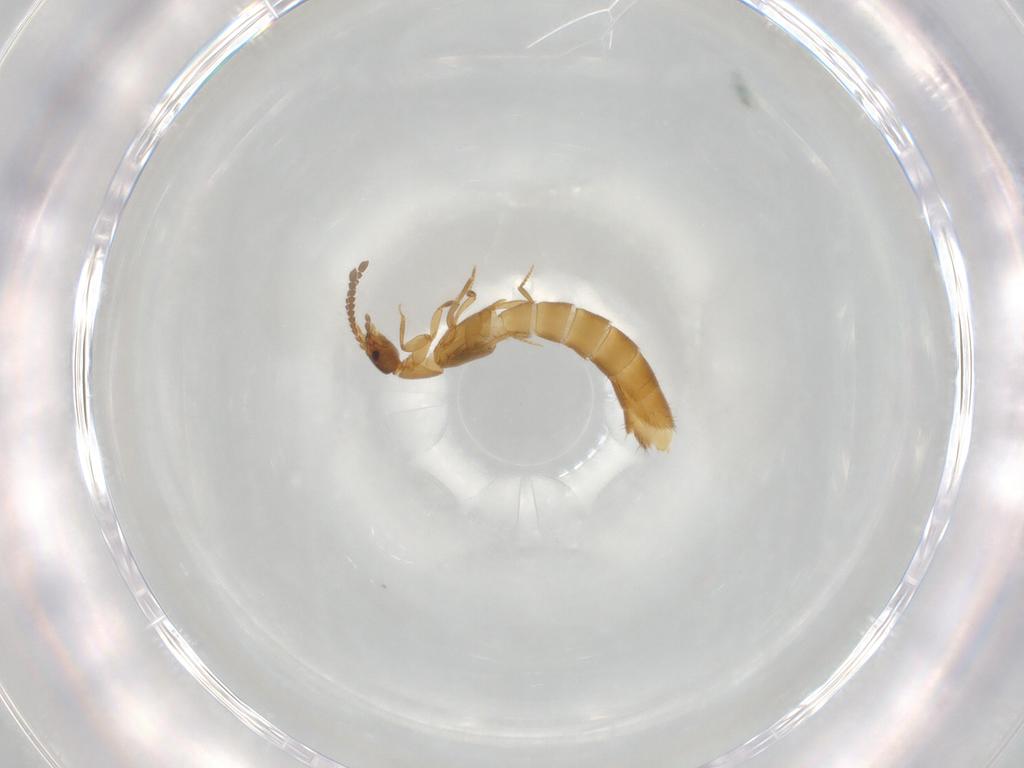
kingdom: Animalia
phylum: Arthropoda
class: Insecta
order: Coleoptera
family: Staphylinidae
